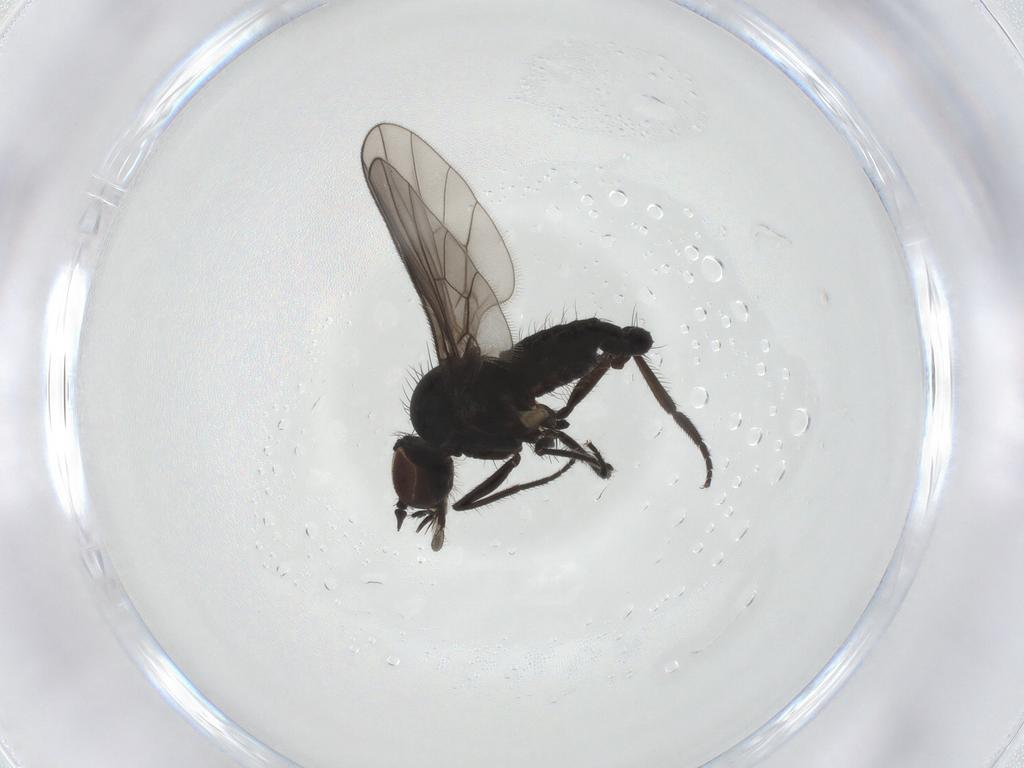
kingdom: Animalia
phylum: Arthropoda
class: Insecta
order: Diptera
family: Dolichopodidae
